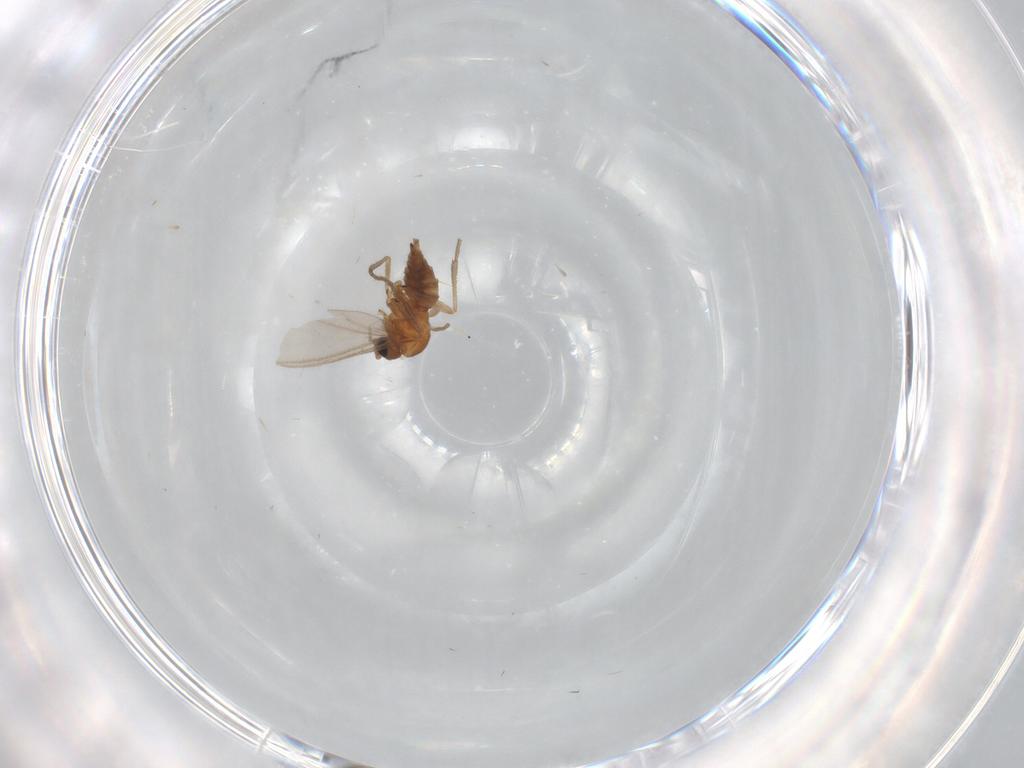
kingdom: Animalia
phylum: Arthropoda
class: Insecta
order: Diptera
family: Sciaridae
